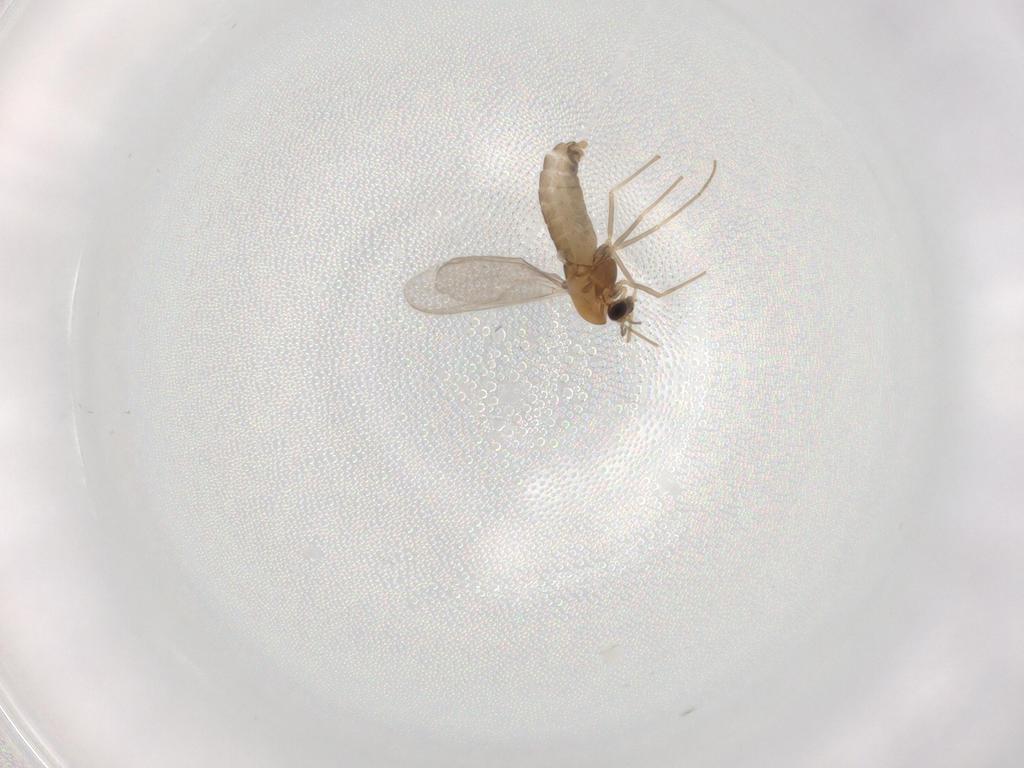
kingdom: Animalia
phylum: Arthropoda
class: Insecta
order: Diptera
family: Chironomidae
